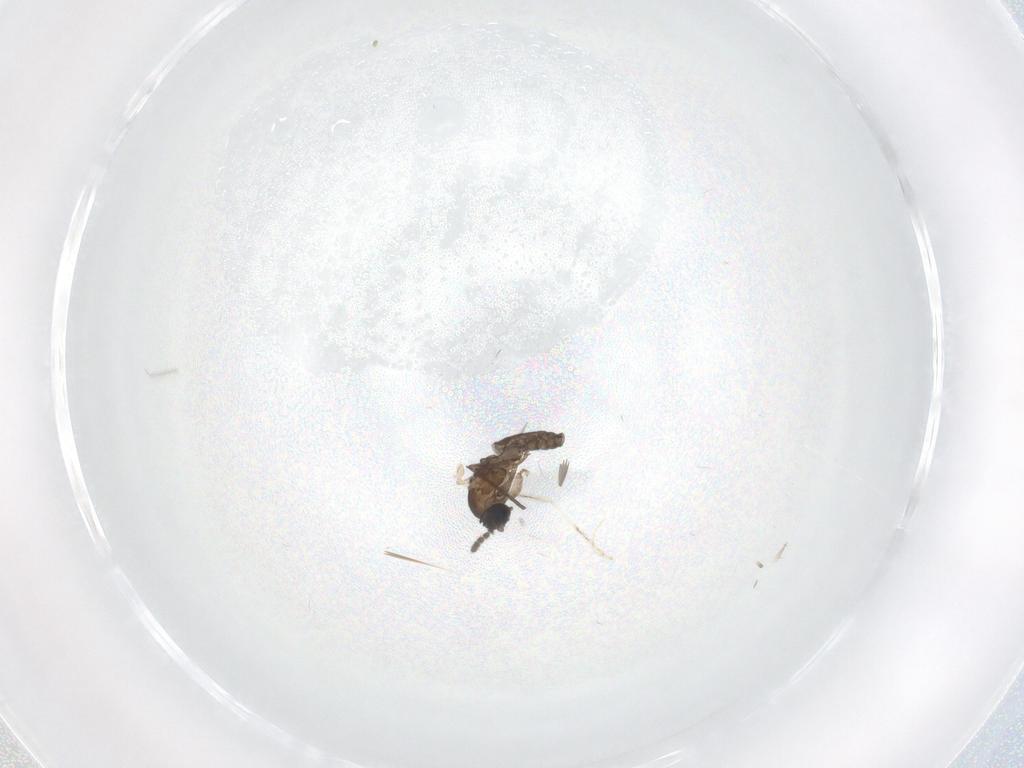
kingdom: Animalia
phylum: Arthropoda
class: Insecta
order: Diptera
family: Cecidomyiidae
